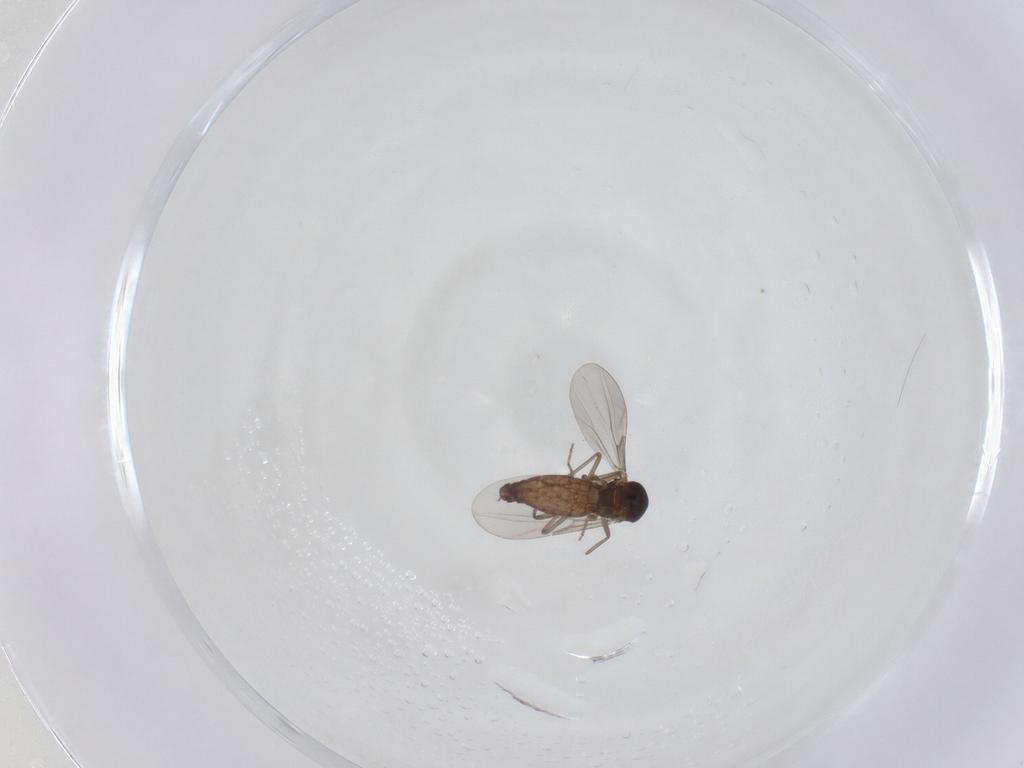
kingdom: Animalia
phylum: Arthropoda
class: Insecta
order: Diptera
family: Ceratopogonidae
